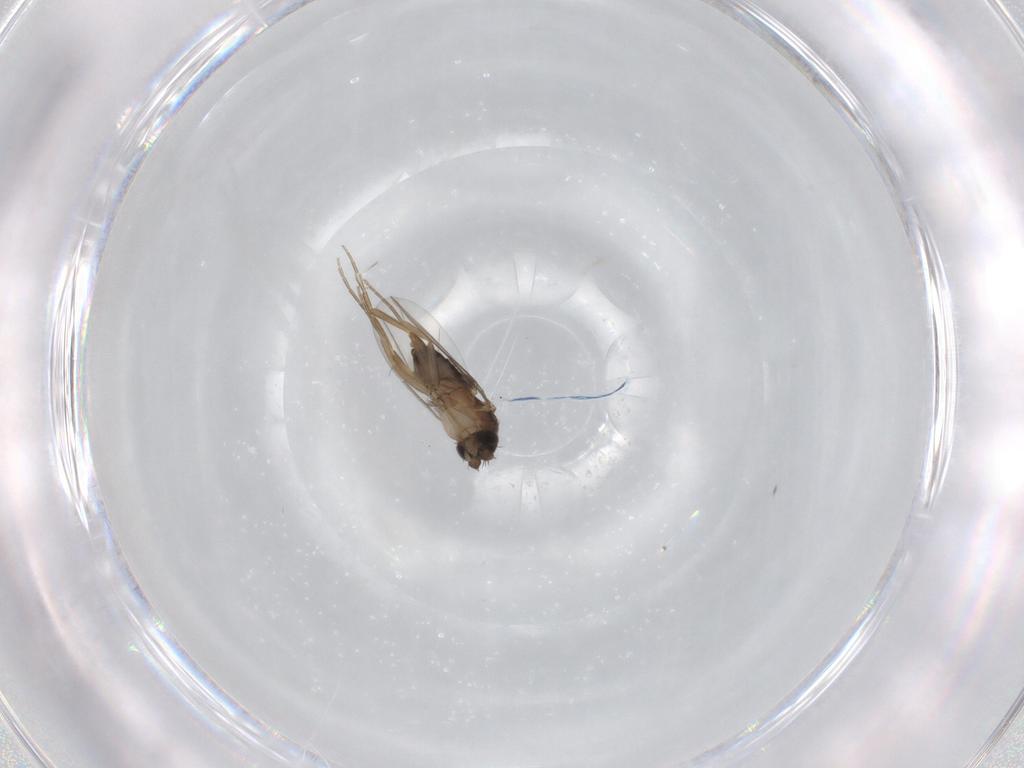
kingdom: Animalia
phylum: Arthropoda
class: Insecta
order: Diptera
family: Phoridae
